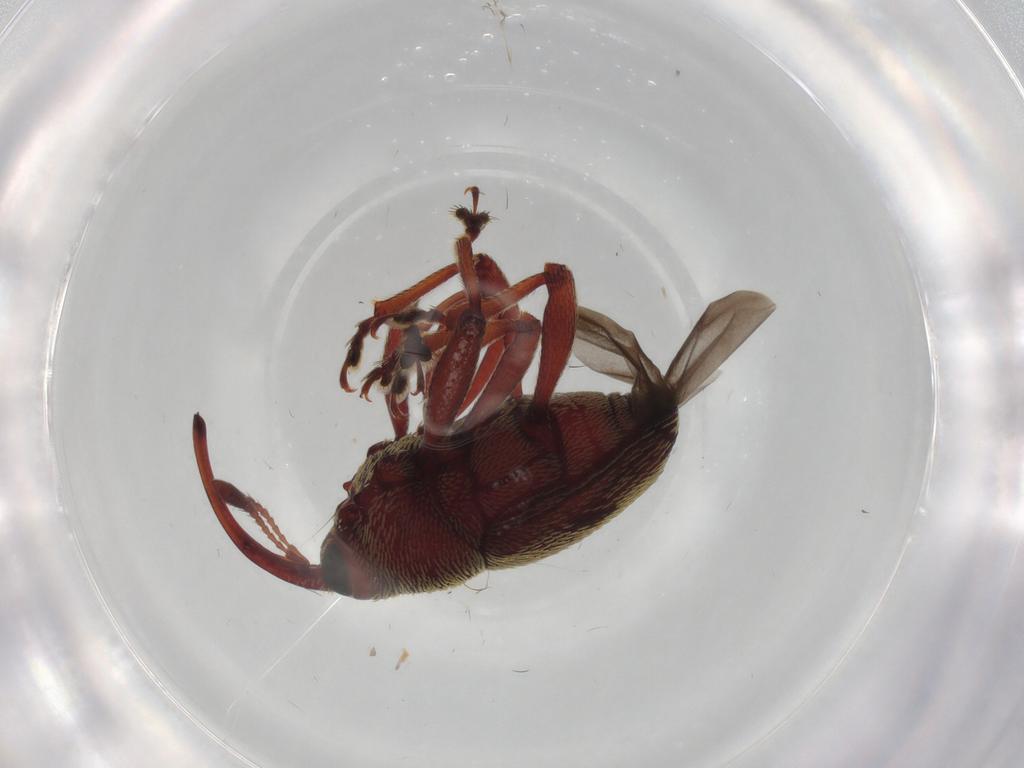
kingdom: Animalia
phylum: Arthropoda
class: Insecta
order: Coleoptera
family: Curculionidae
